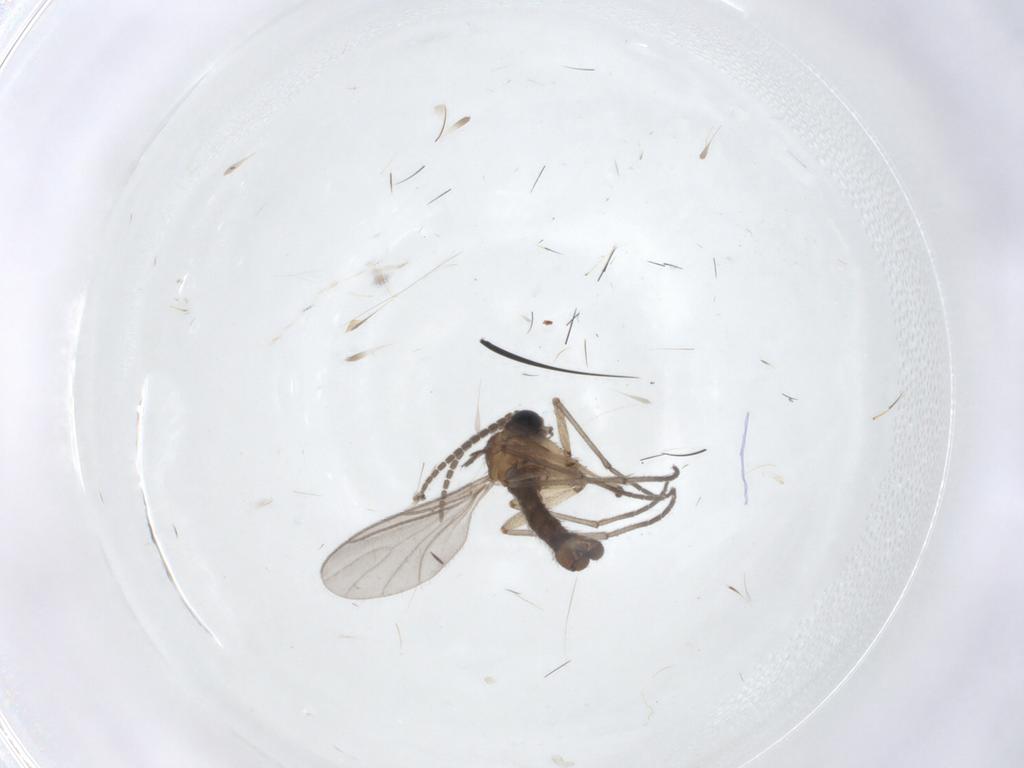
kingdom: Animalia
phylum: Arthropoda
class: Insecta
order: Diptera
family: Sciaridae
